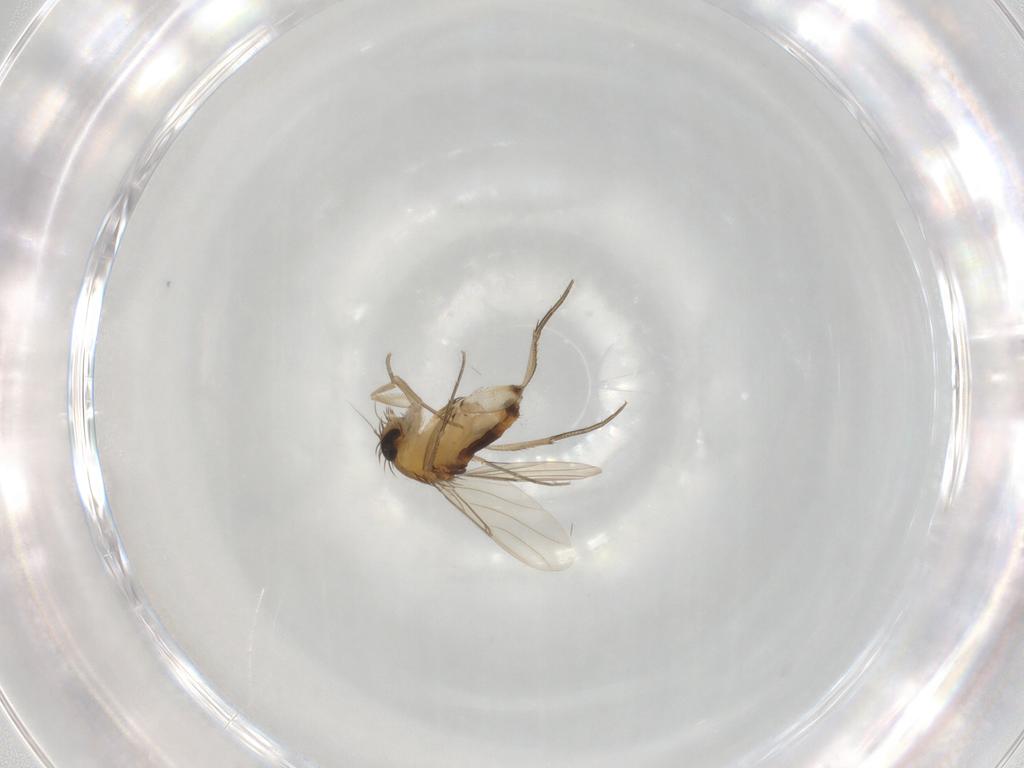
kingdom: Animalia
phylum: Arthropoda
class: Insecta
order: Diptera
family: Phoridae
